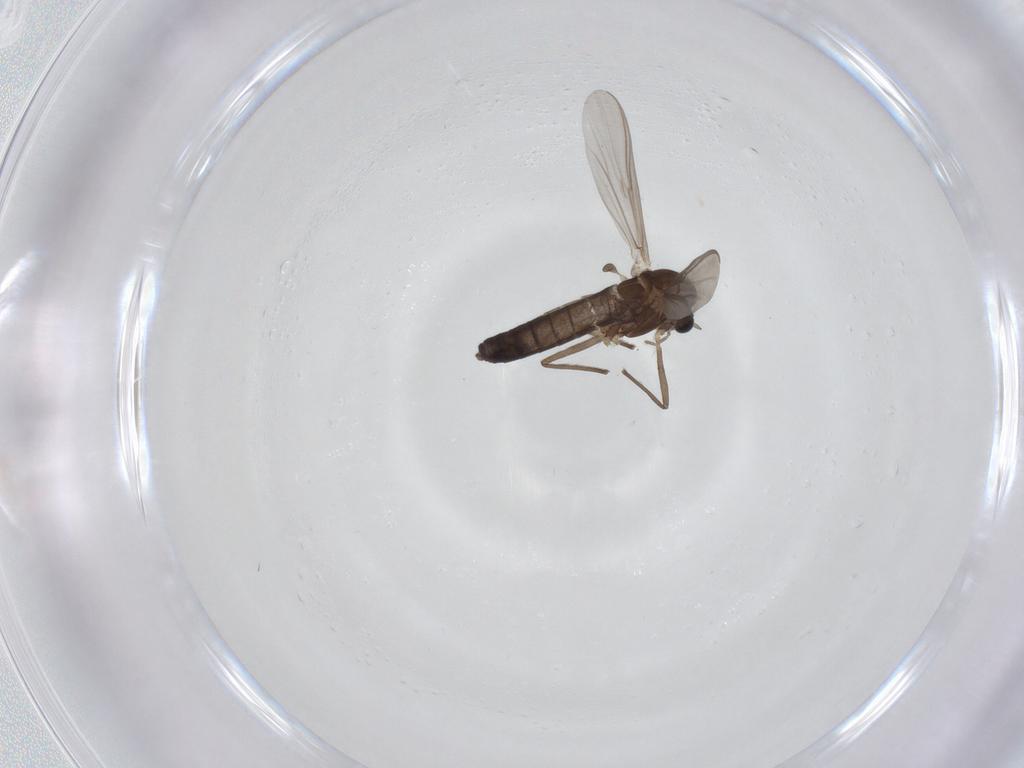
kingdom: Animalia
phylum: Arthropoda
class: Insecta
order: Diptera
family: Chironomidae
